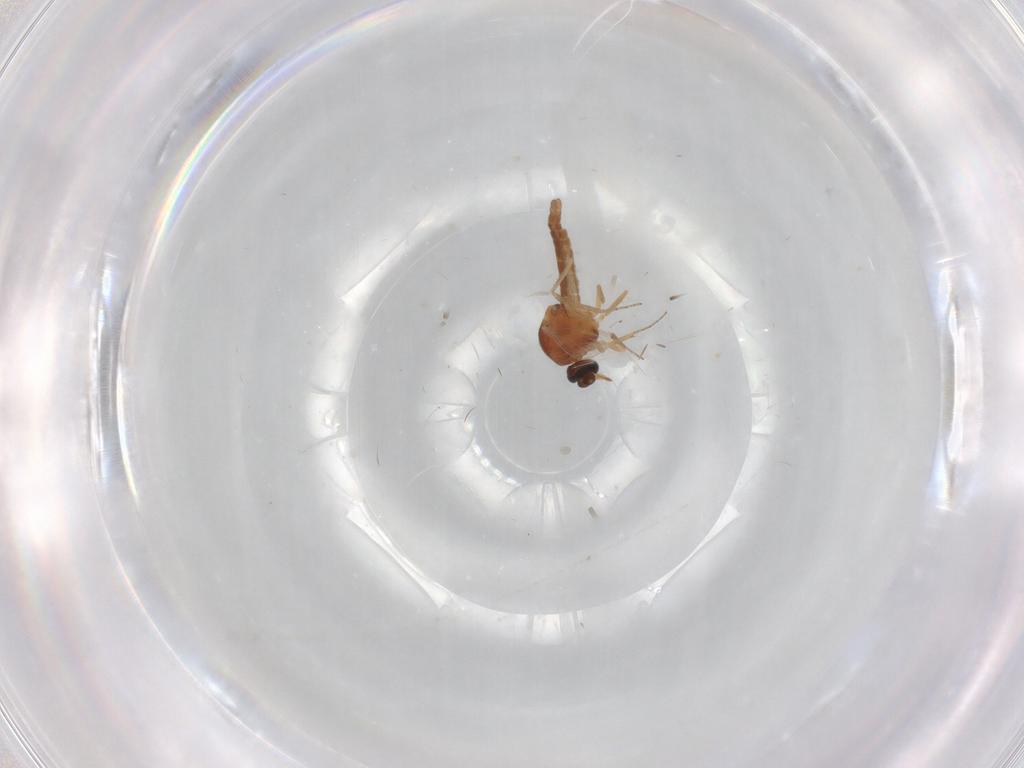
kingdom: Animalia
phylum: Arthropoda
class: Insecta
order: Diptera
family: Ceratopogonidae
